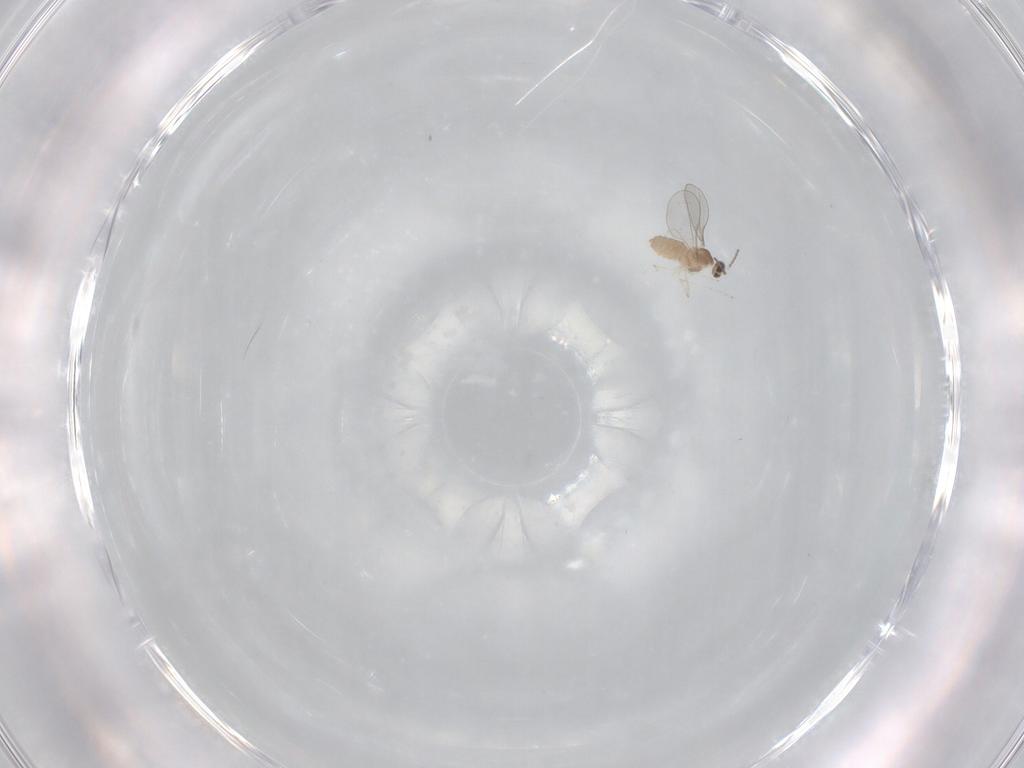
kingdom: Animalia
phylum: Arthropoda
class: Insecta
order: Diptera
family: Cecidomyiidae
